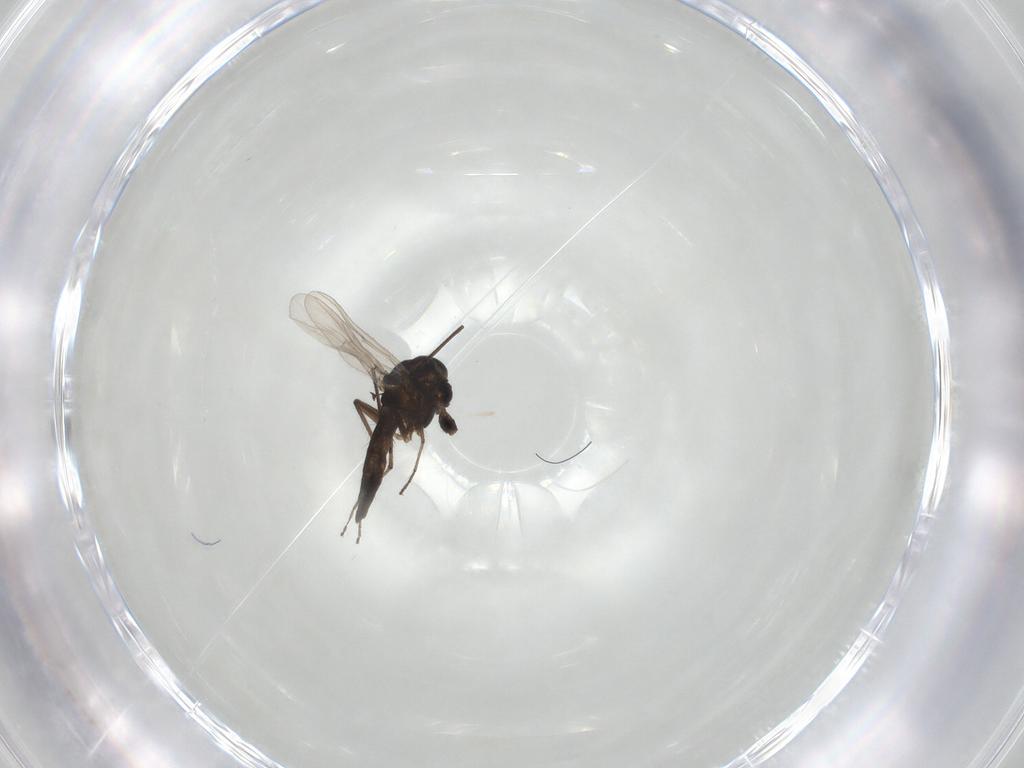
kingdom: Animalia
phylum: Arthropoda
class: Insecta
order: Diptera
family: Chironomidae
